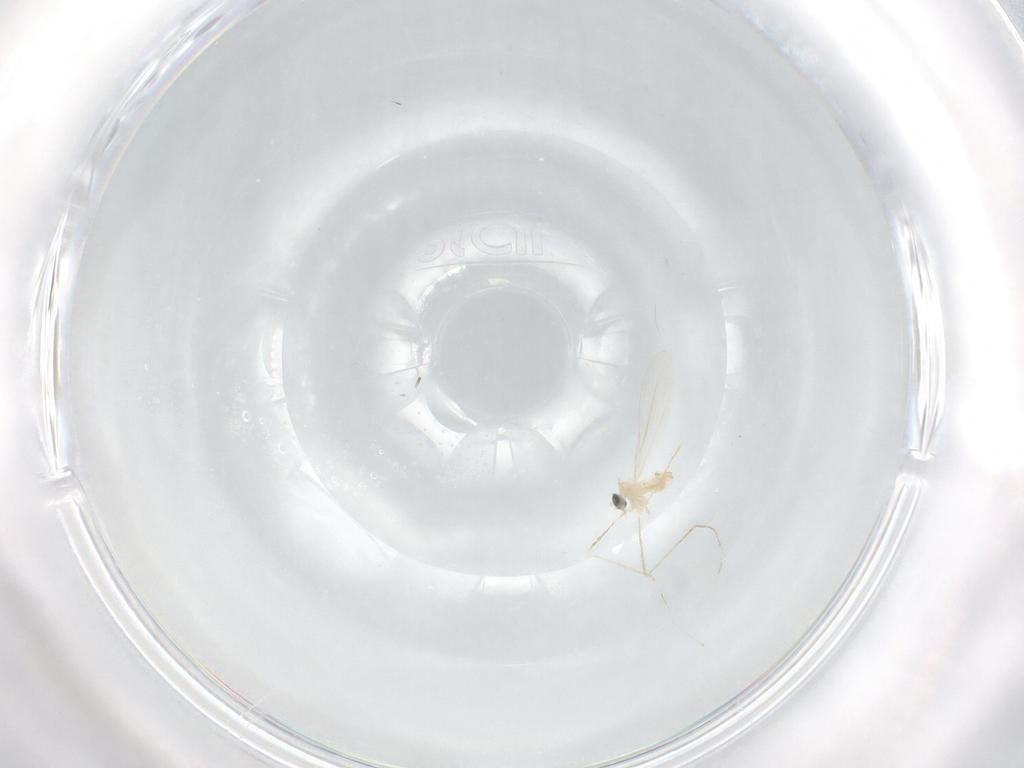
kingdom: Animalia
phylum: Arthropoda
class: Insecta
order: Diptera
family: Cecidomyiidae
